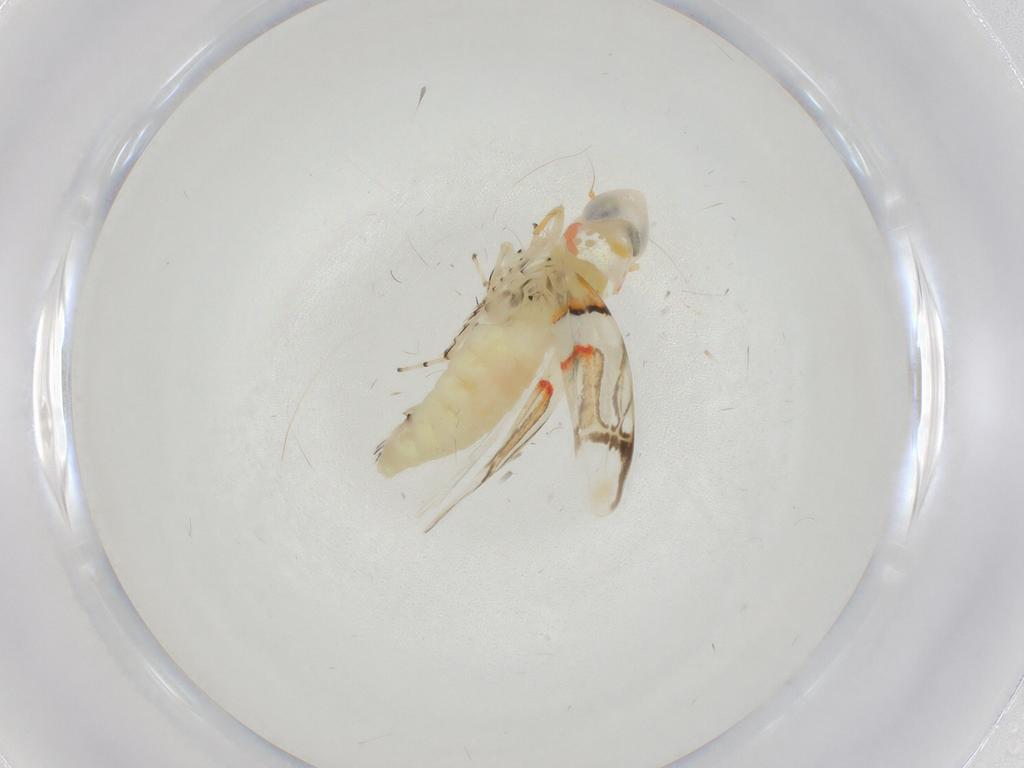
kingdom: Animalia
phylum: Arthropoda
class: Insecta
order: Hemiptera
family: Cicadellidae
